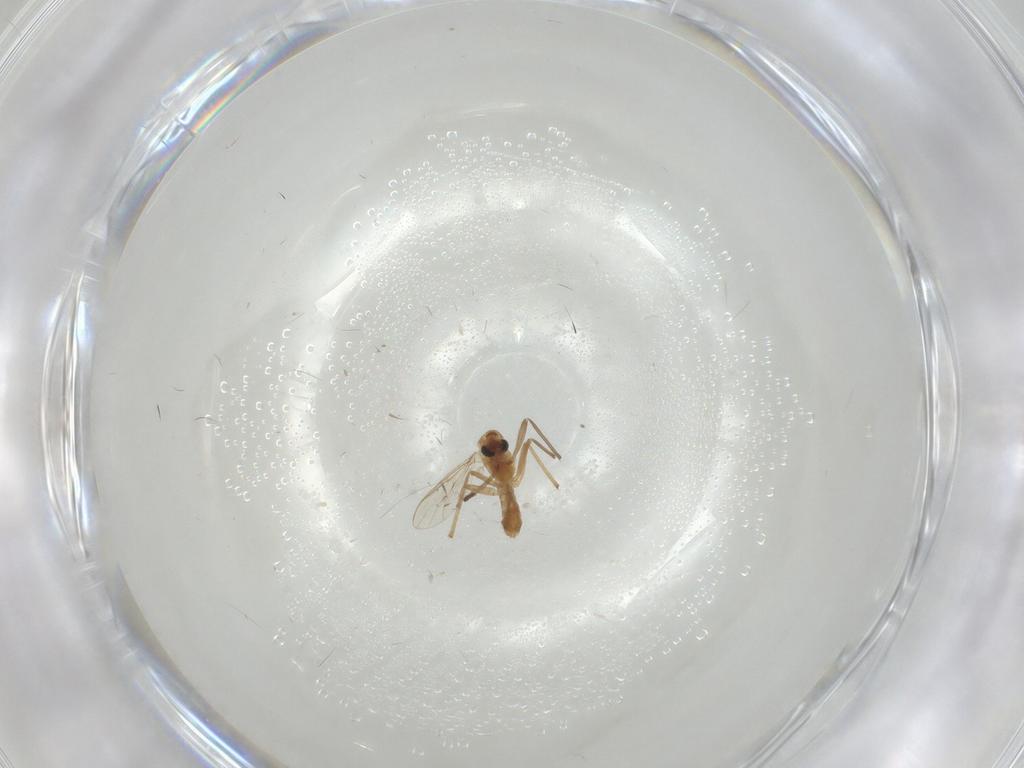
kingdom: Animalia
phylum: Arthropoda
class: Insecta
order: Diptera
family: Chironomidae
